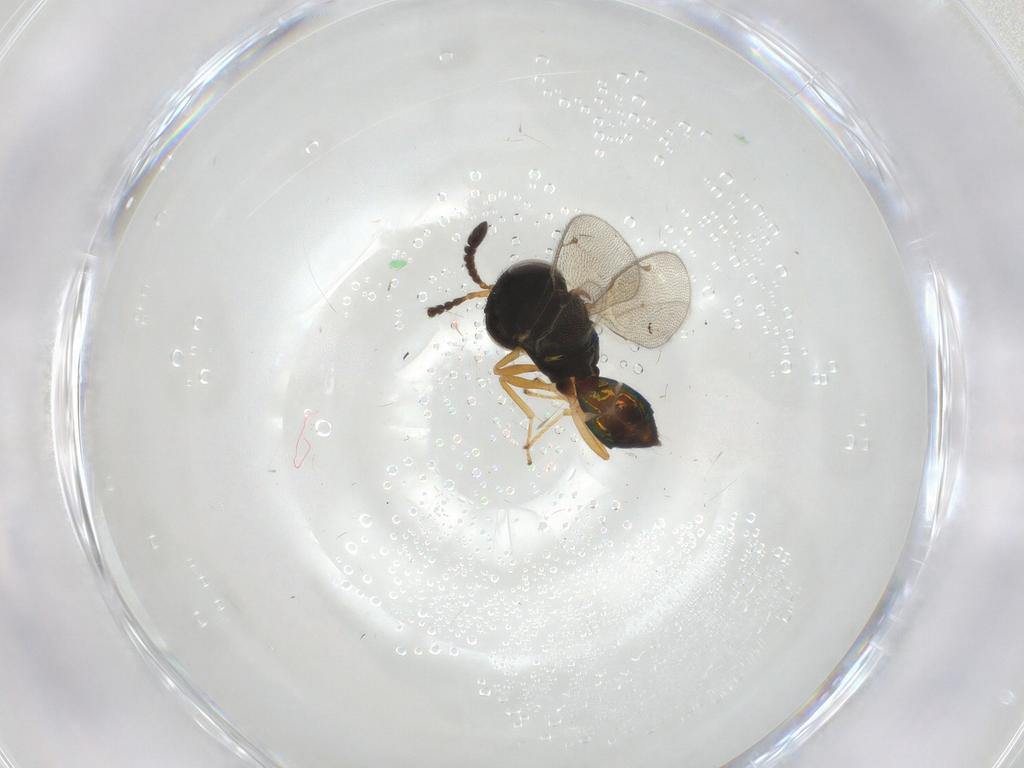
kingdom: Animalia
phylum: Arthropoda
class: Insecta
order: Hymenoptera
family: Pteromalidae
